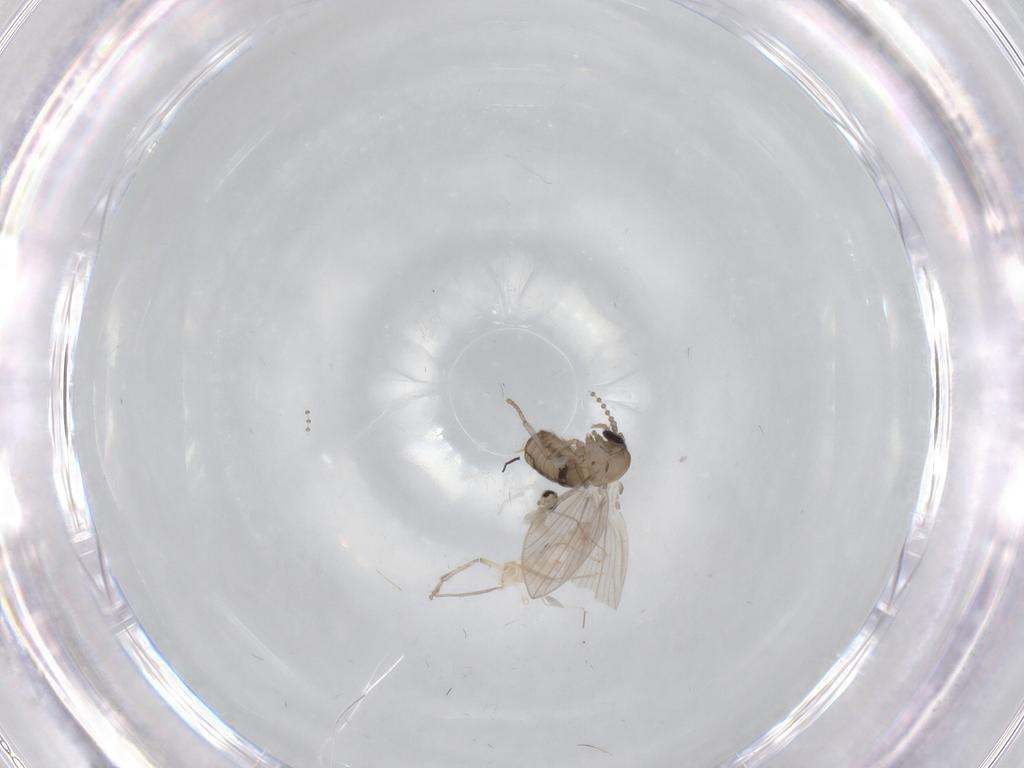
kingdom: Animalia
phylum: Arthropoda
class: Insecta
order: Diptera
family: Psychodidae
